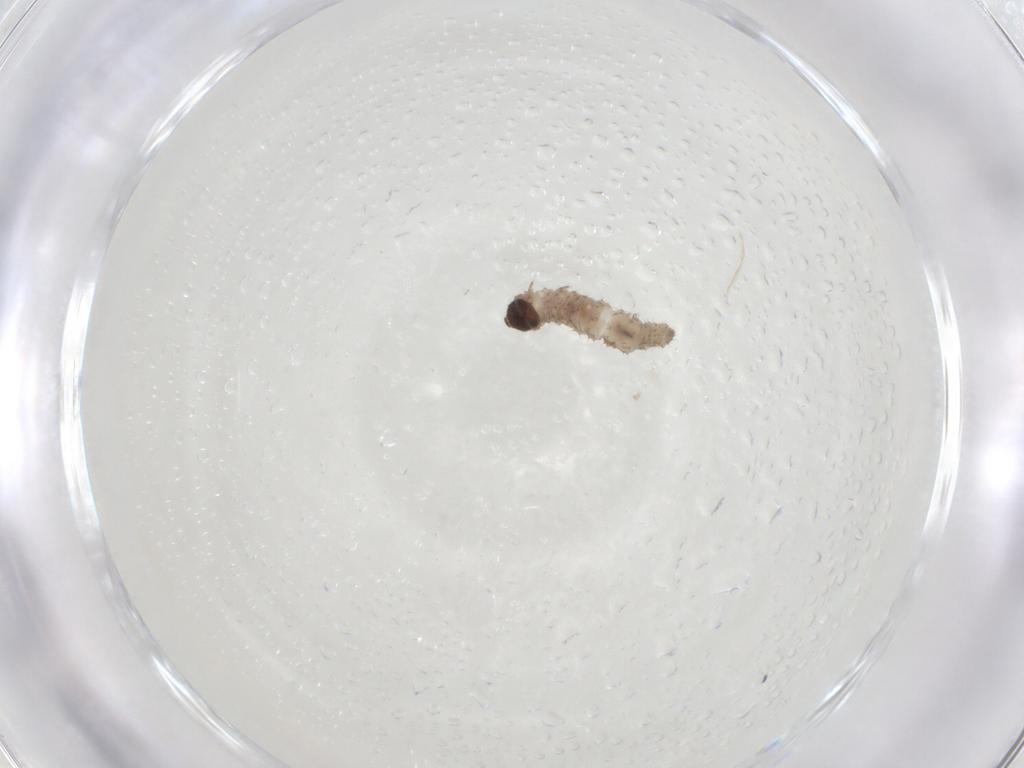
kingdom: Animalia
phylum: Arthropoda
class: Insecta
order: Lepidoptera
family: Noctuidae
